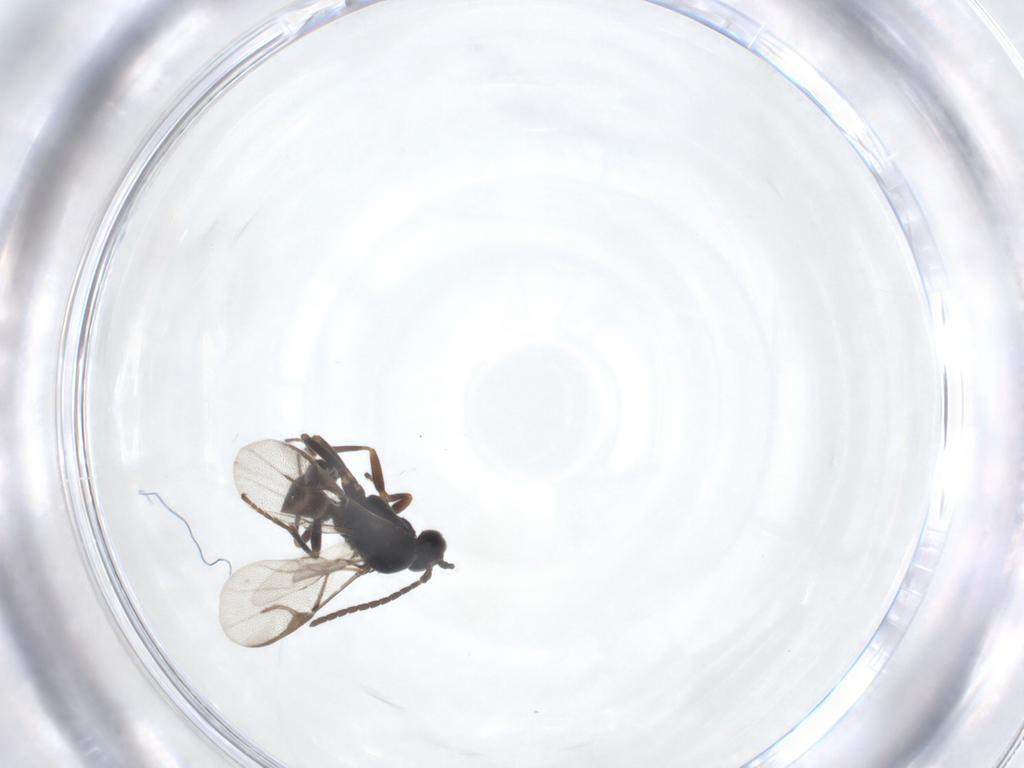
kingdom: Animalia
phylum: Arthropoda
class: Insecta
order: Hymenoptera
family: Braconidae
